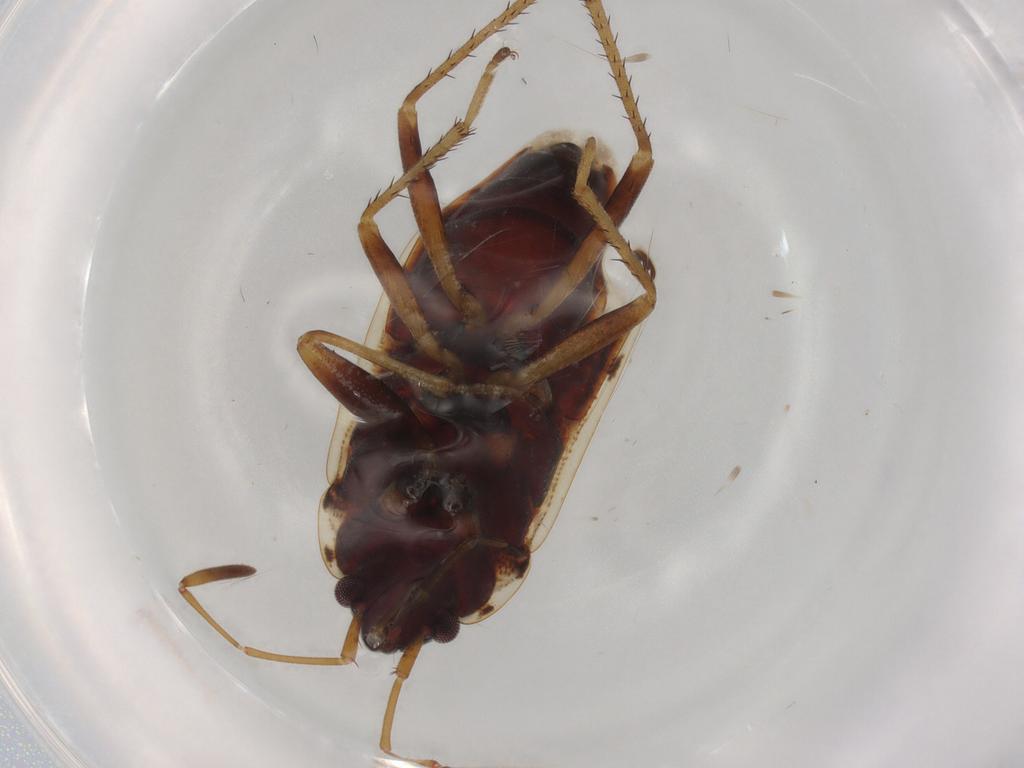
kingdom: Animalia
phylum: Arthropoda
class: Insecta
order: Hemiptera
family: Rhyparochromidae
